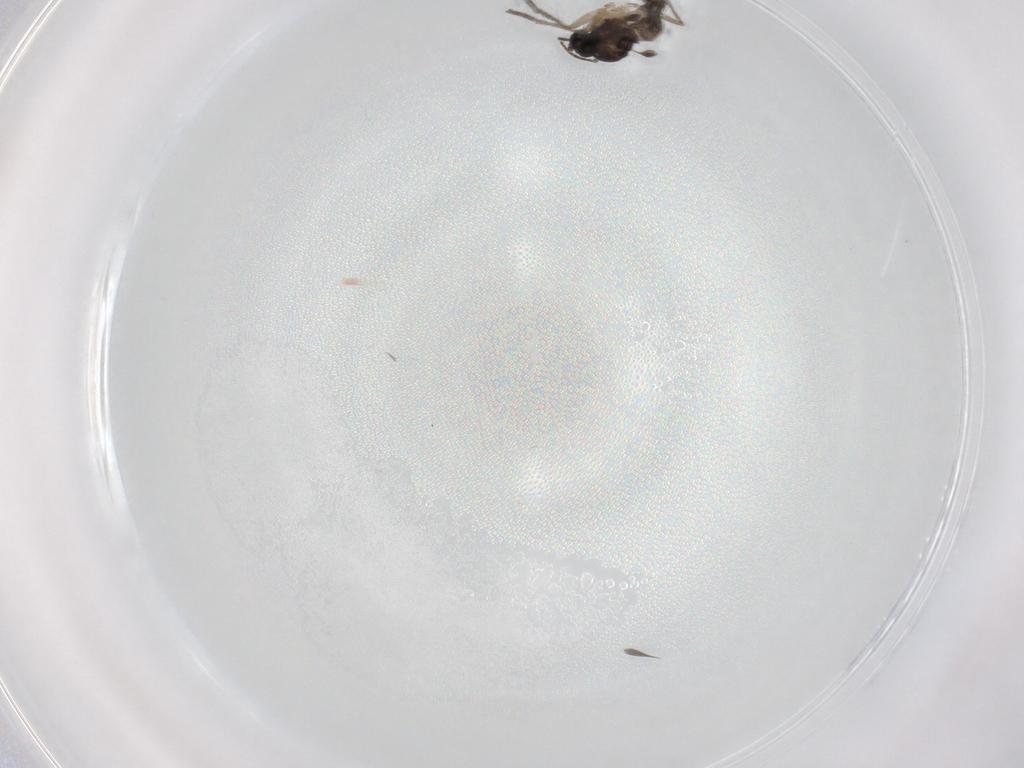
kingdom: Animalia
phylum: Arthropoda
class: Insecta
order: Diptera
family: Sciaridae
